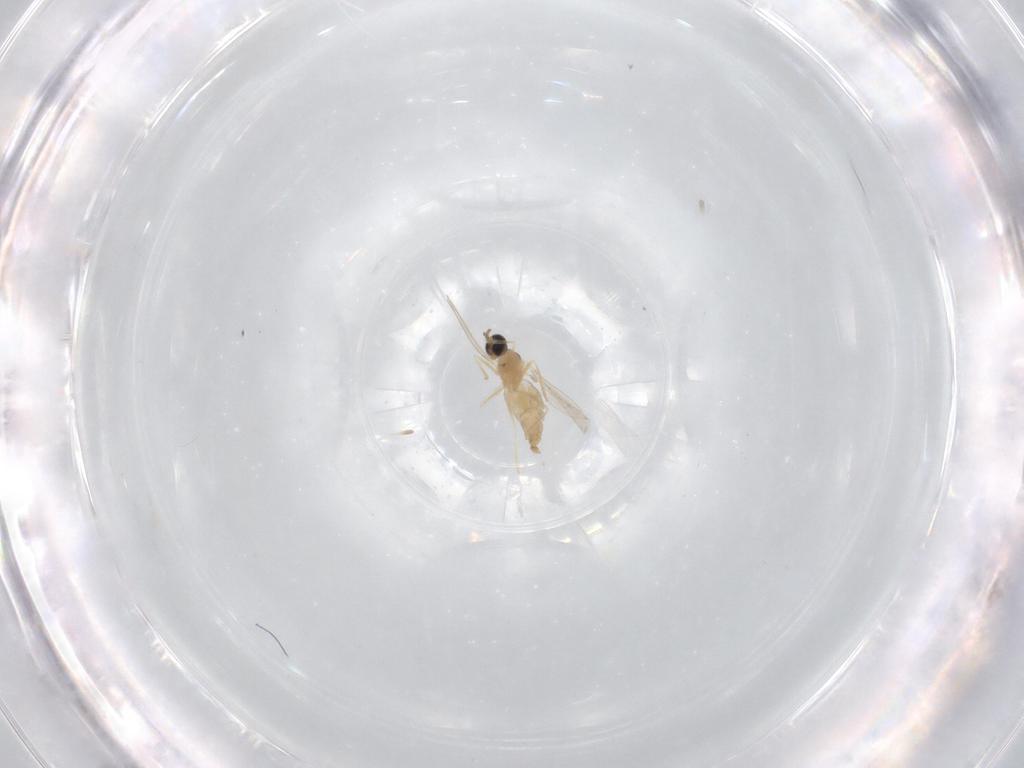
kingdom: Animalia
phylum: Arthropoda
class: Insecta
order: Diptera
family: Cecidomyiidae
